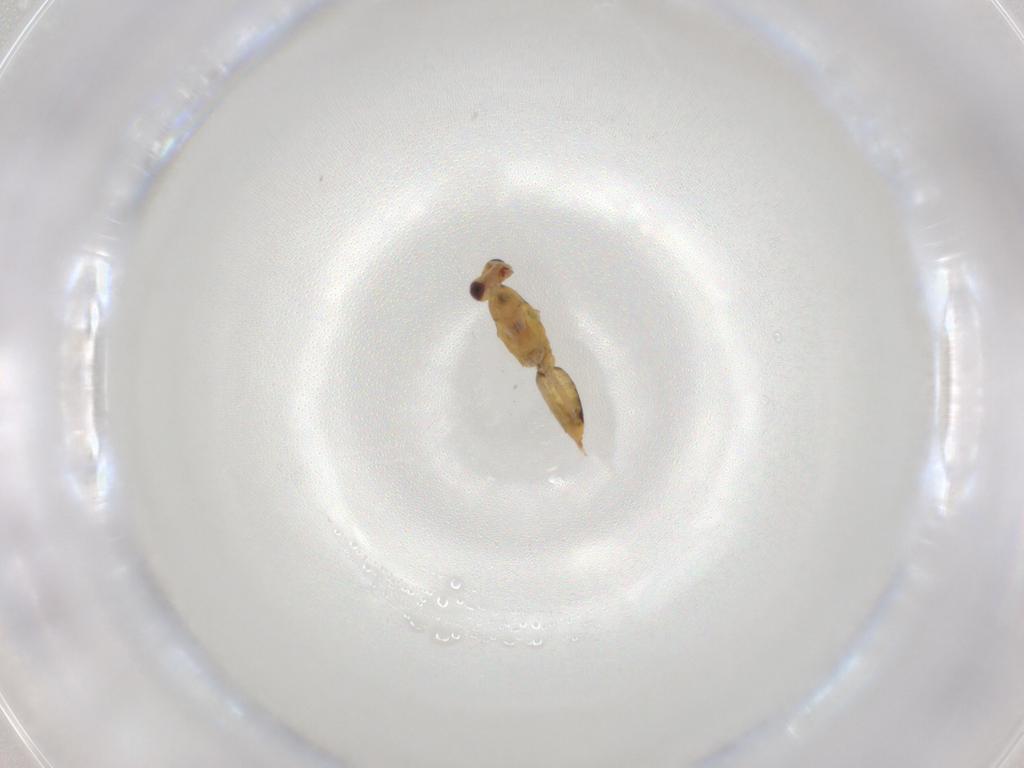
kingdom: Animalia
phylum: Arthropoda
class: Insecta
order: Hymenoptera
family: Eulophidae
